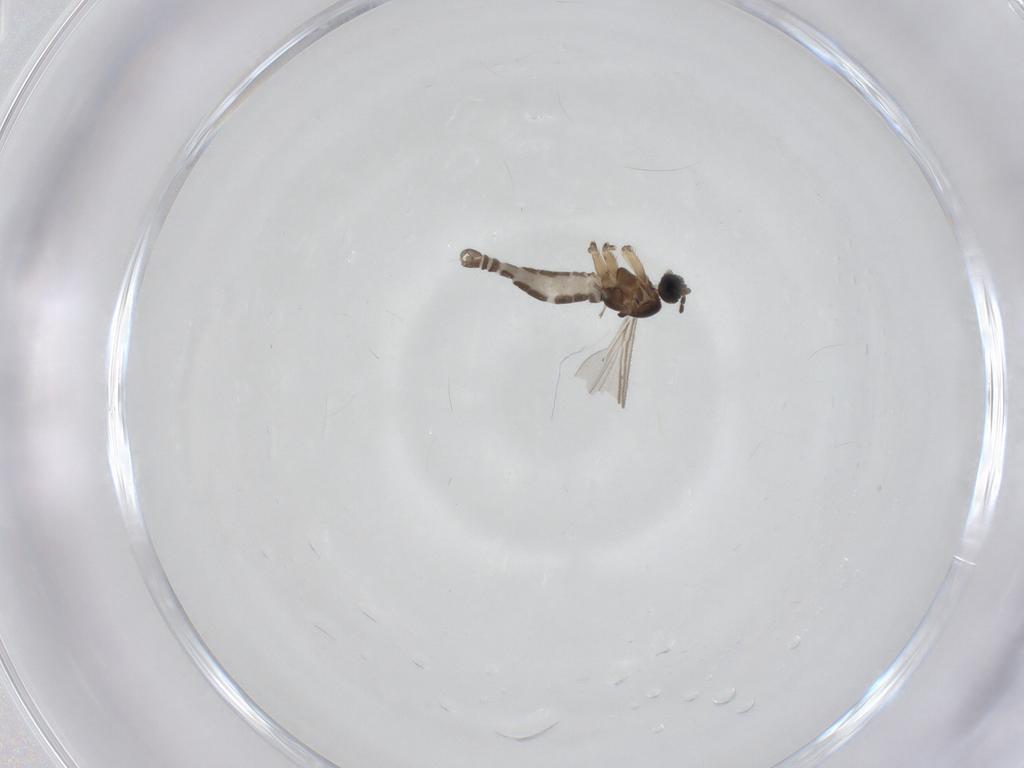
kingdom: Animalia
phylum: Arthropoda
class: Insecta
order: Diptera
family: Sciaridae
